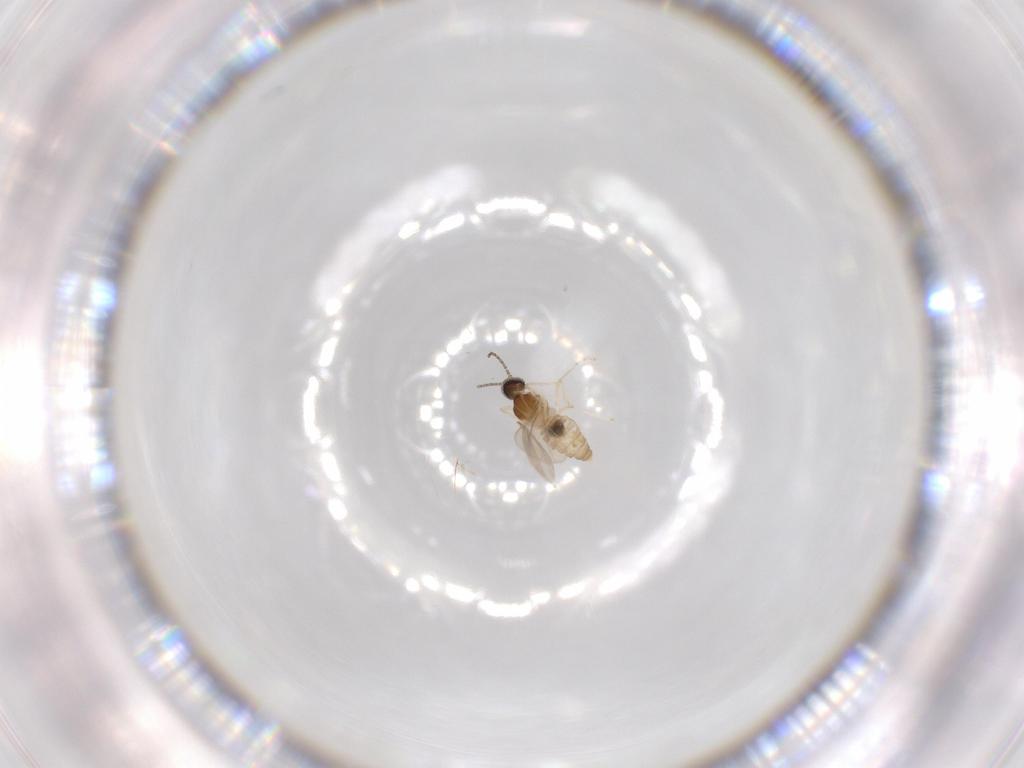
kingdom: Animalia
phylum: Arthropoda
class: Insecta
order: Diptera
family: Cecidomyiidae
